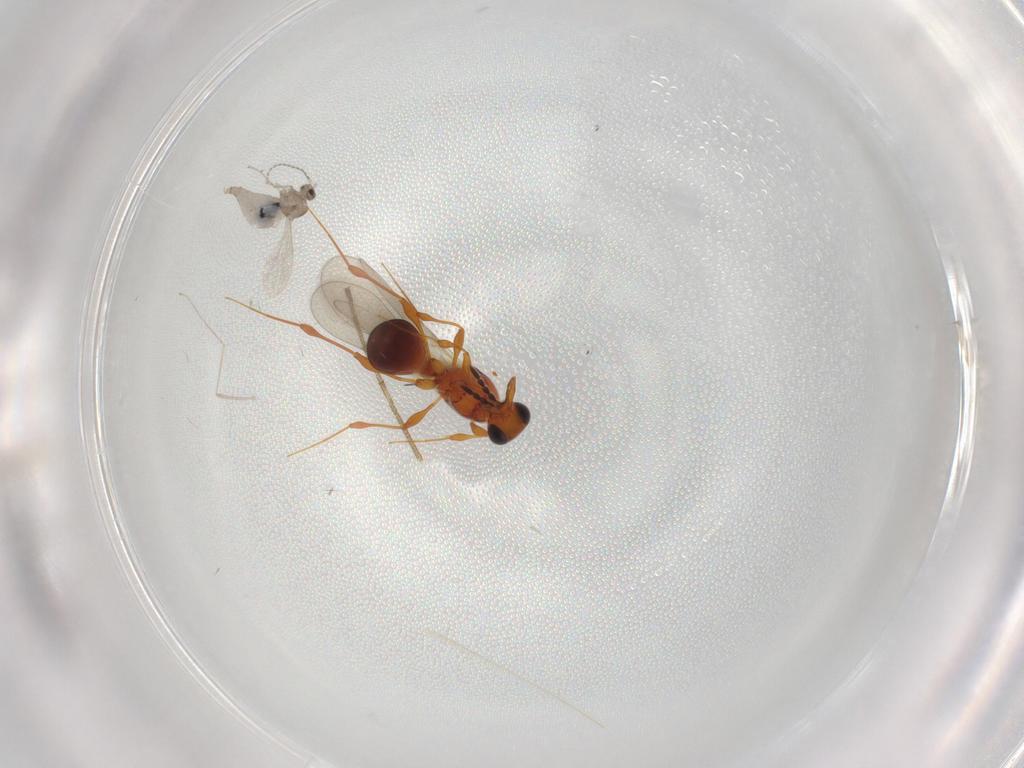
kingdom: Animalia
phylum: Arthropoda
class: Insecta
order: Diptera
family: Cecidomyiidae
